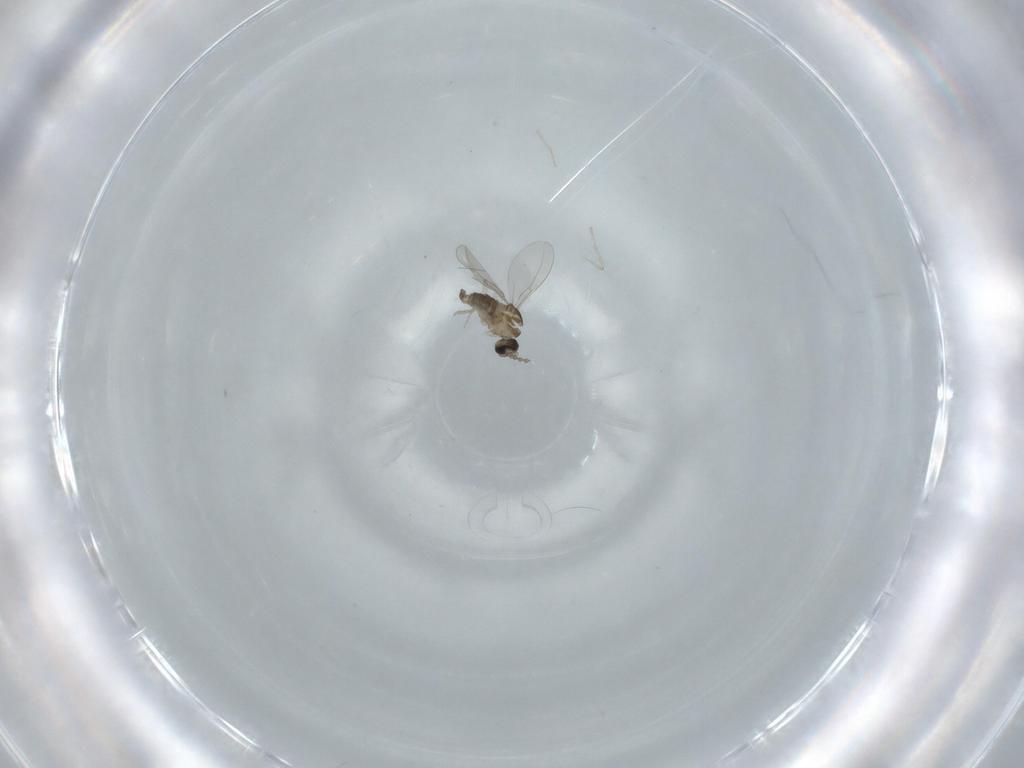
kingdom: Animalia
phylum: Arthropoda
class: Insecta
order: Diptera
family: Cecidomyiidae
